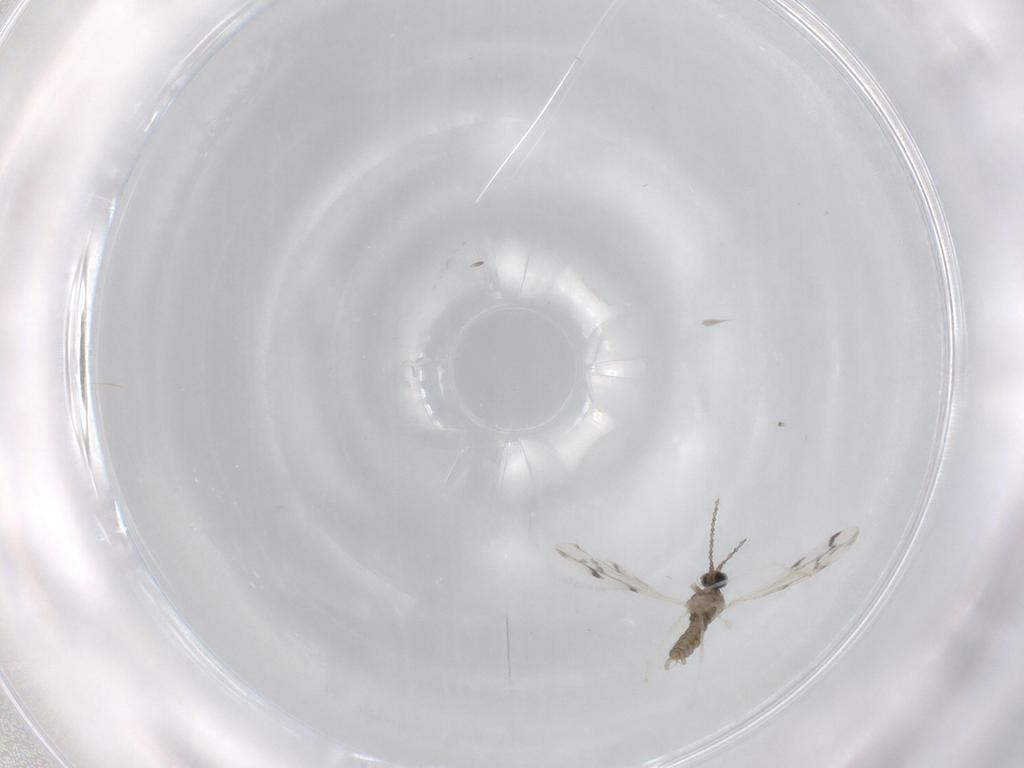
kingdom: Animalia
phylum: Arthropoda
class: Insecta
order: Diptera
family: Cecidomyiidae
